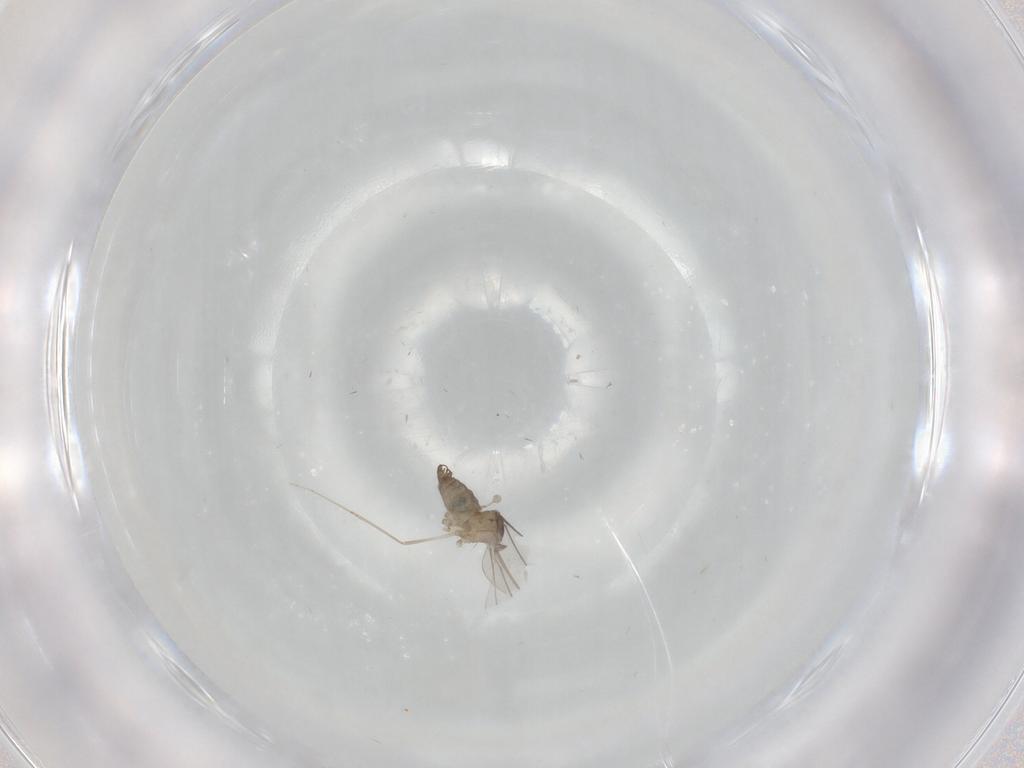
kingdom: Animalia
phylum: Arthropoda
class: Insecta
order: Diptera
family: Cecidomyiidae
